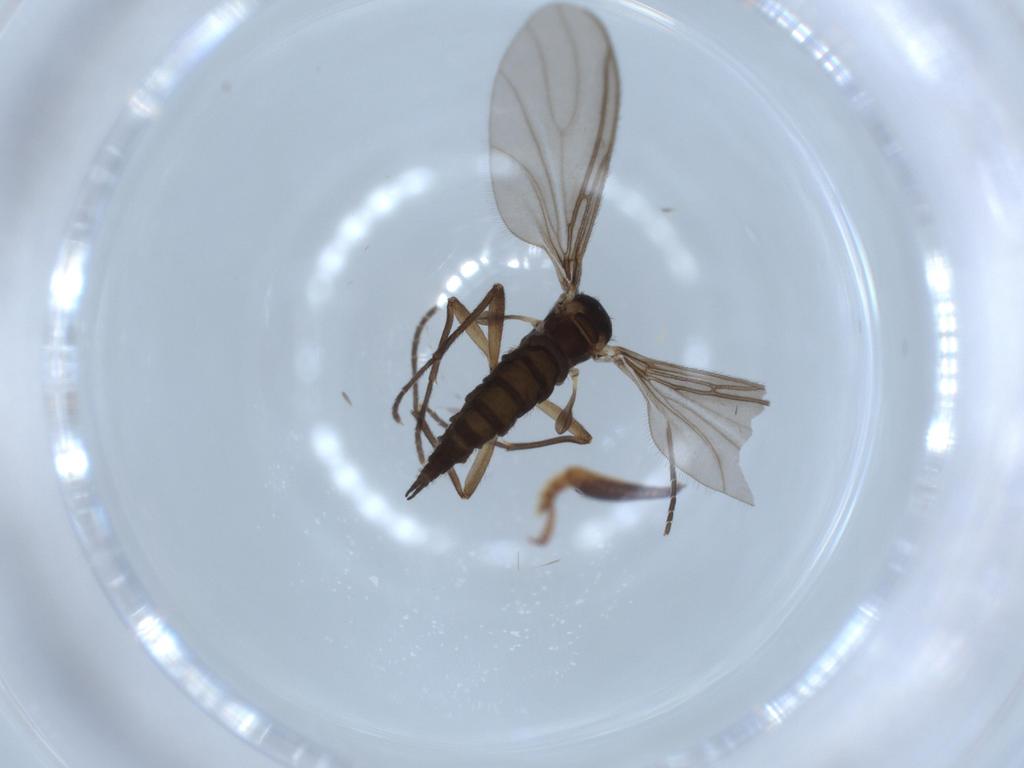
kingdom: Animalia
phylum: Arthropoda
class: Insecta
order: Diptera
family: Sciaridae
